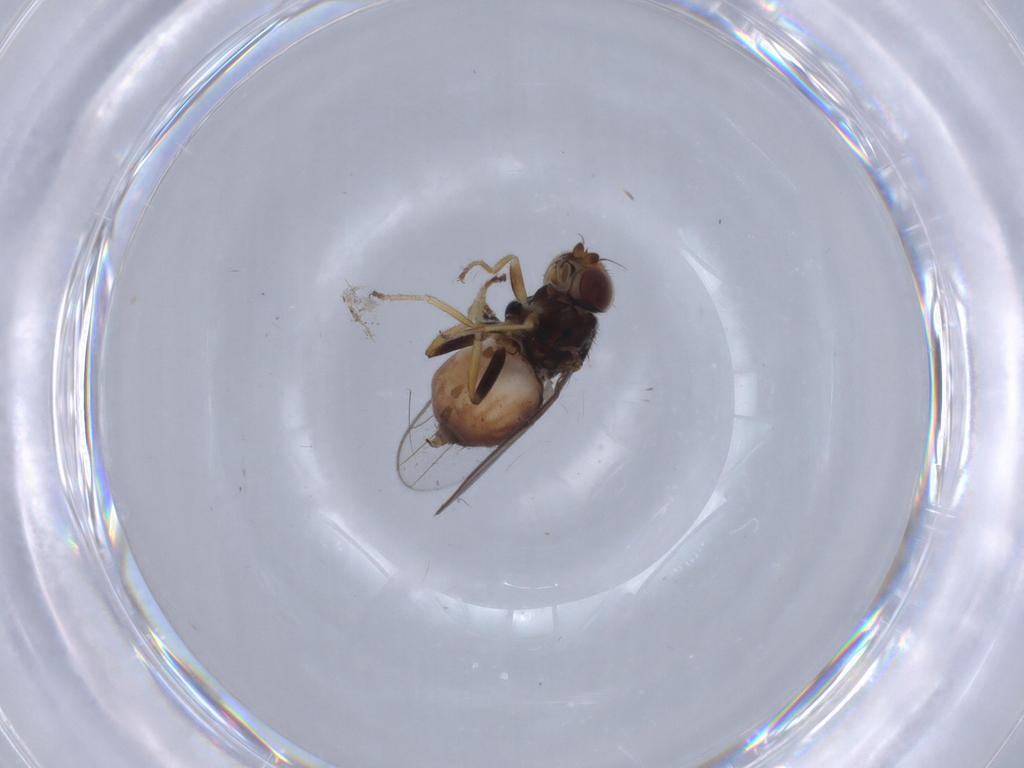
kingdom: Animalia
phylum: Arthropoda
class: Insecta
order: Diptera
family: Chloropidae
